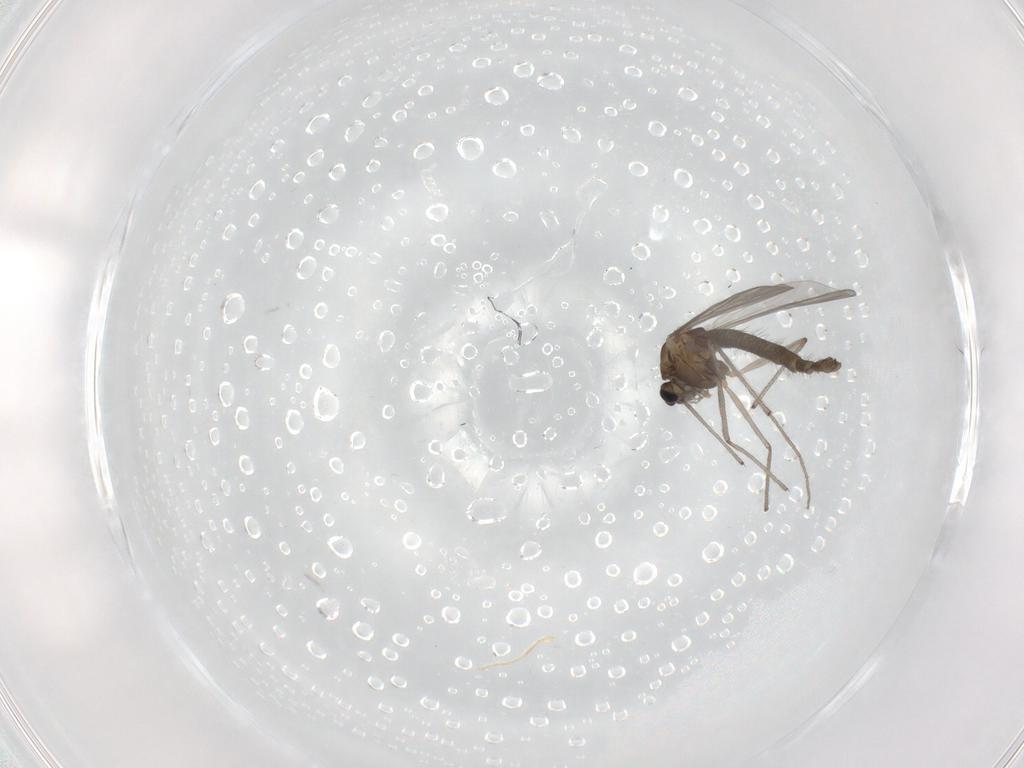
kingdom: Animalia
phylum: Arthropoda
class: Insecta
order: Diptera
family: Chironomidae
